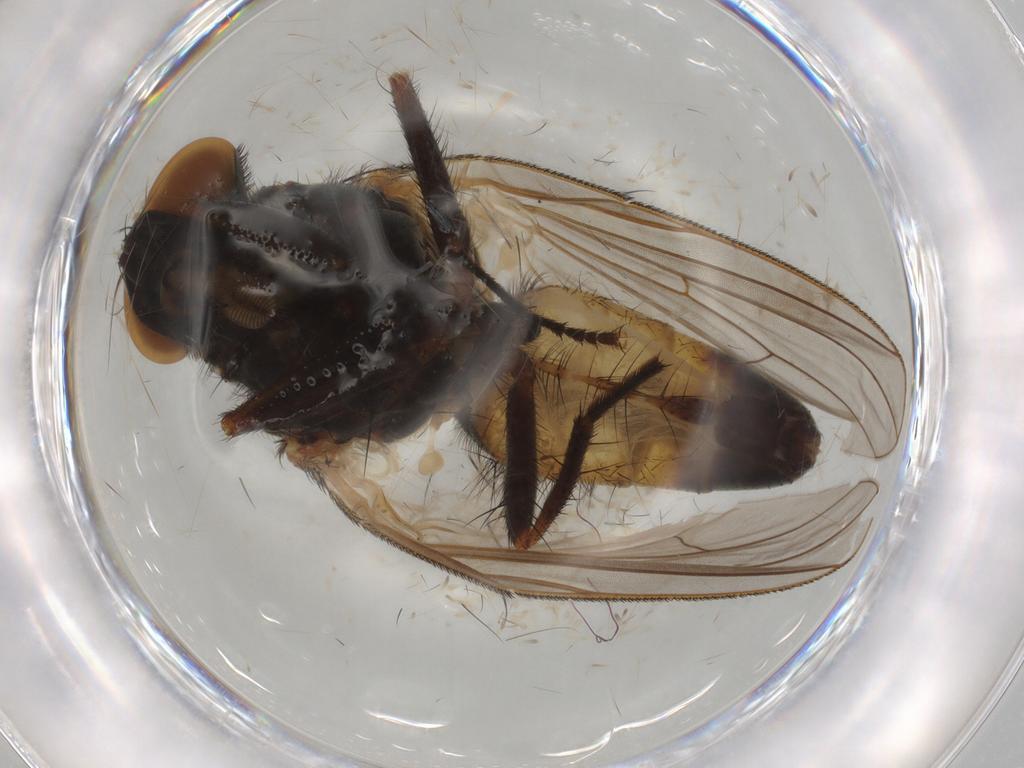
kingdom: Animalia
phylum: Arthropoda
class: Insecta
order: Diptera
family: Fannia
